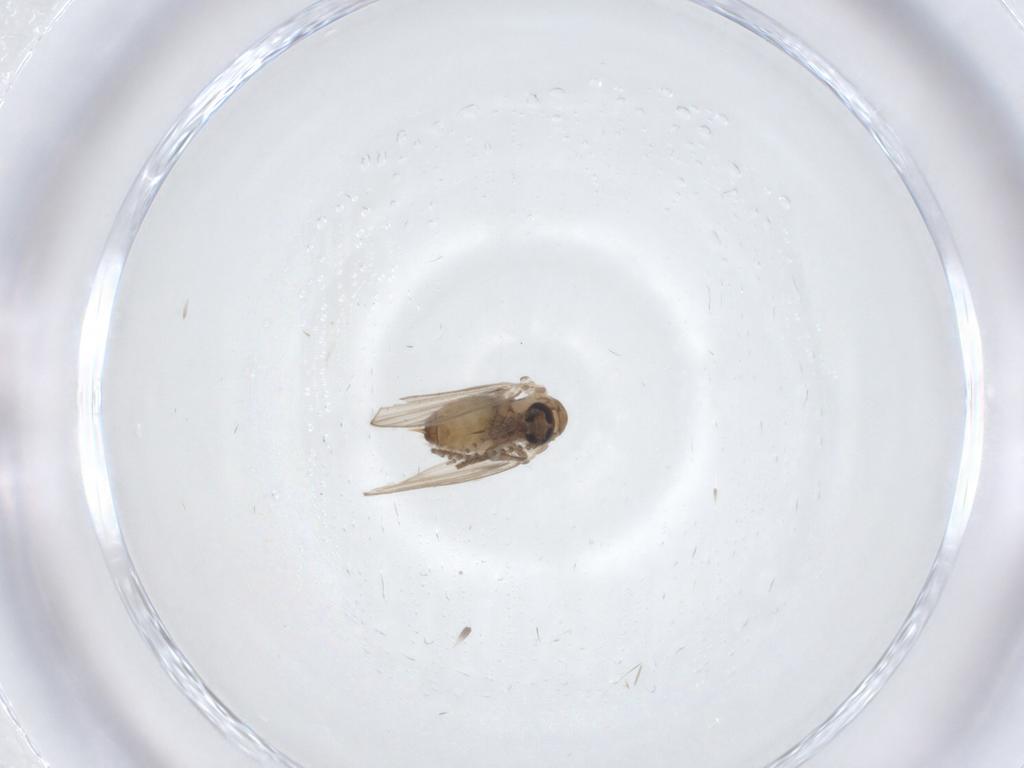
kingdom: Animalia
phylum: Arthropoda
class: Insecta
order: Diptera
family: Psychodidae
